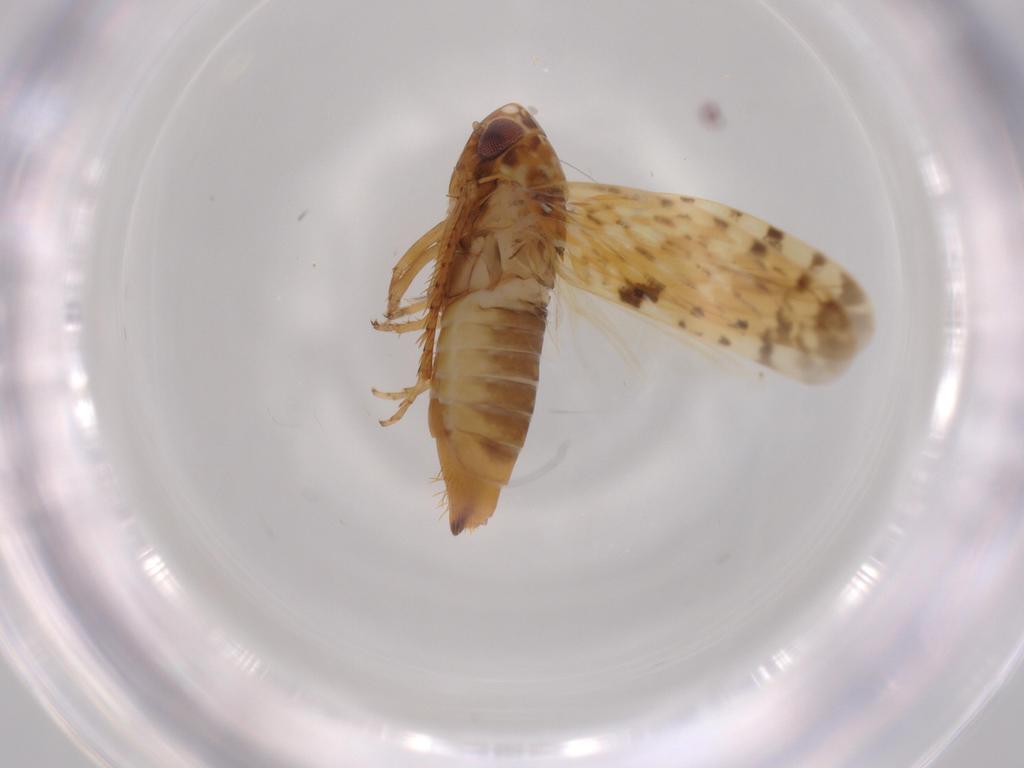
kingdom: Animalia
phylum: Arthropoda
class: Insecta
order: Hemiptera
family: Cicadellidae
